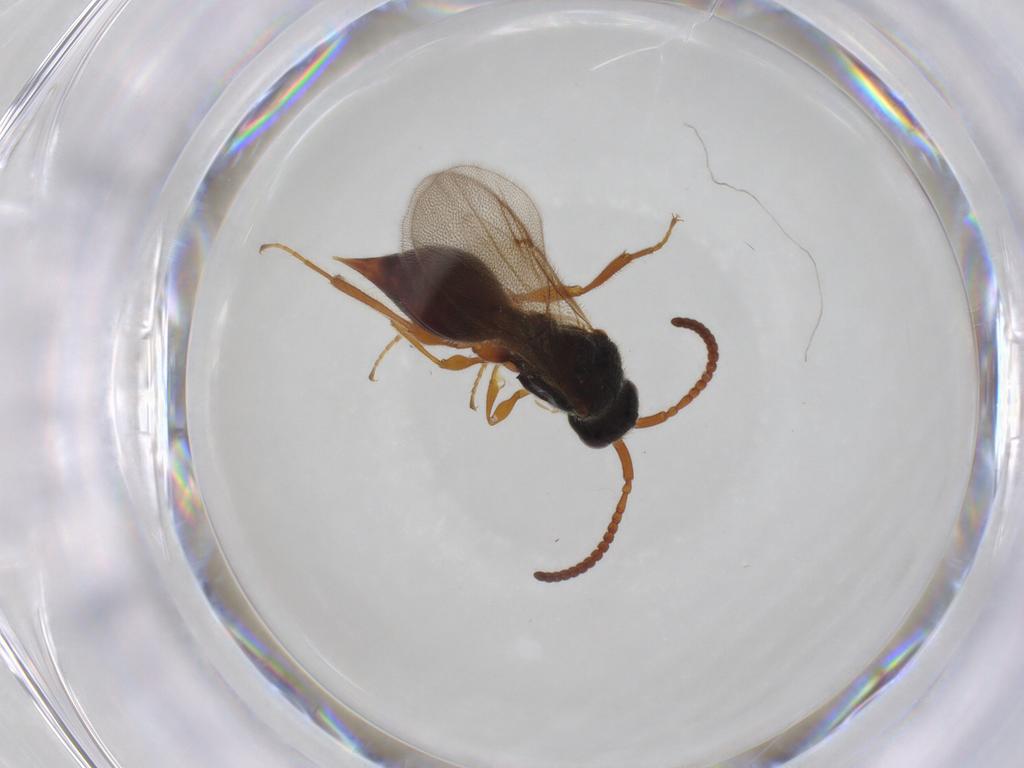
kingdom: Animalia
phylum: Arthropoda
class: Insecta
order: Hymenoptera
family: Diapriidae
